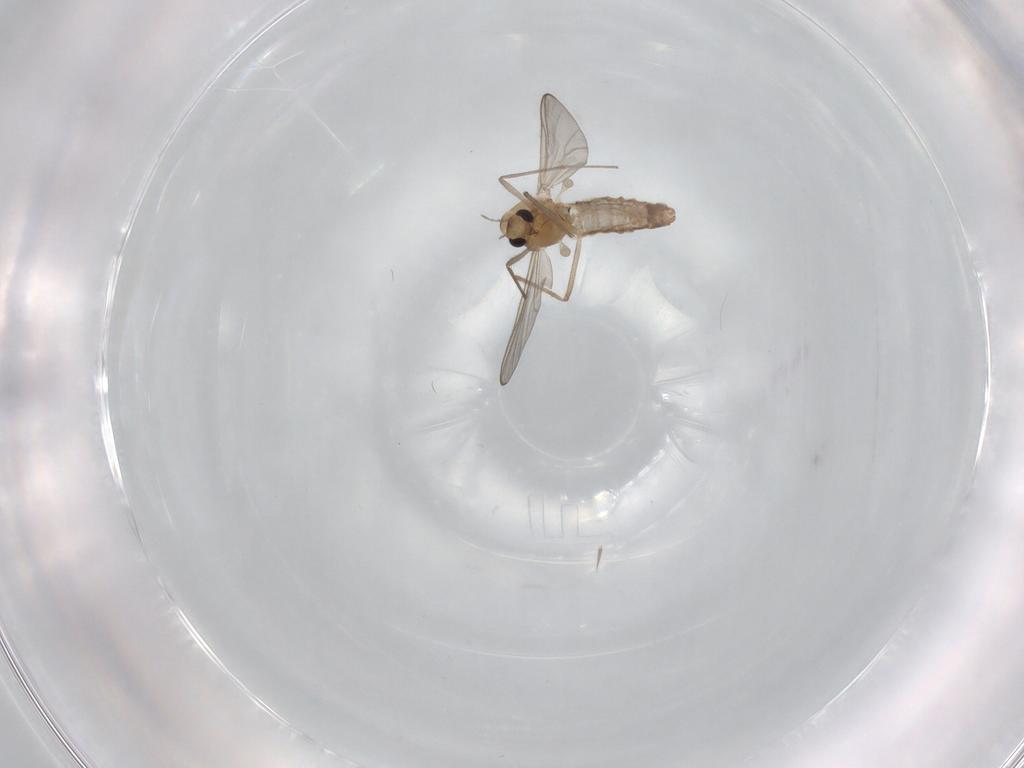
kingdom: Animalia
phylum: Arthropoda
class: Insecta
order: Diptera
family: Chironomidae
